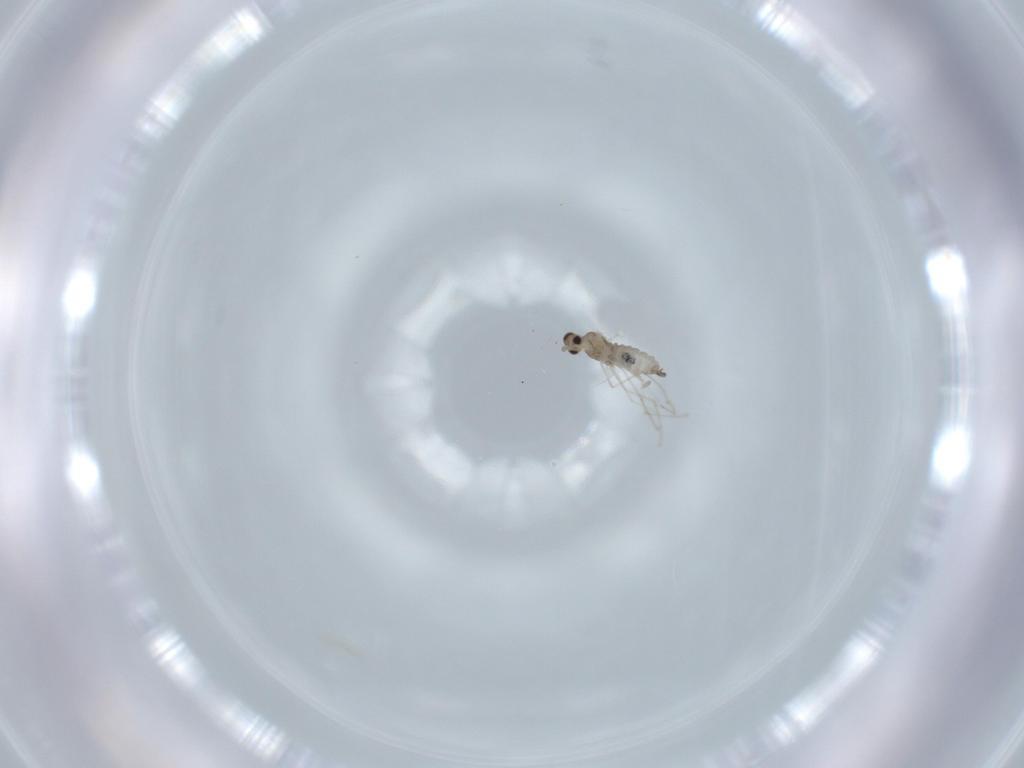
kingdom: Animalia
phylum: Arthropoda
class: Insecta
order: Diptera
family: Cecidomyiidae
